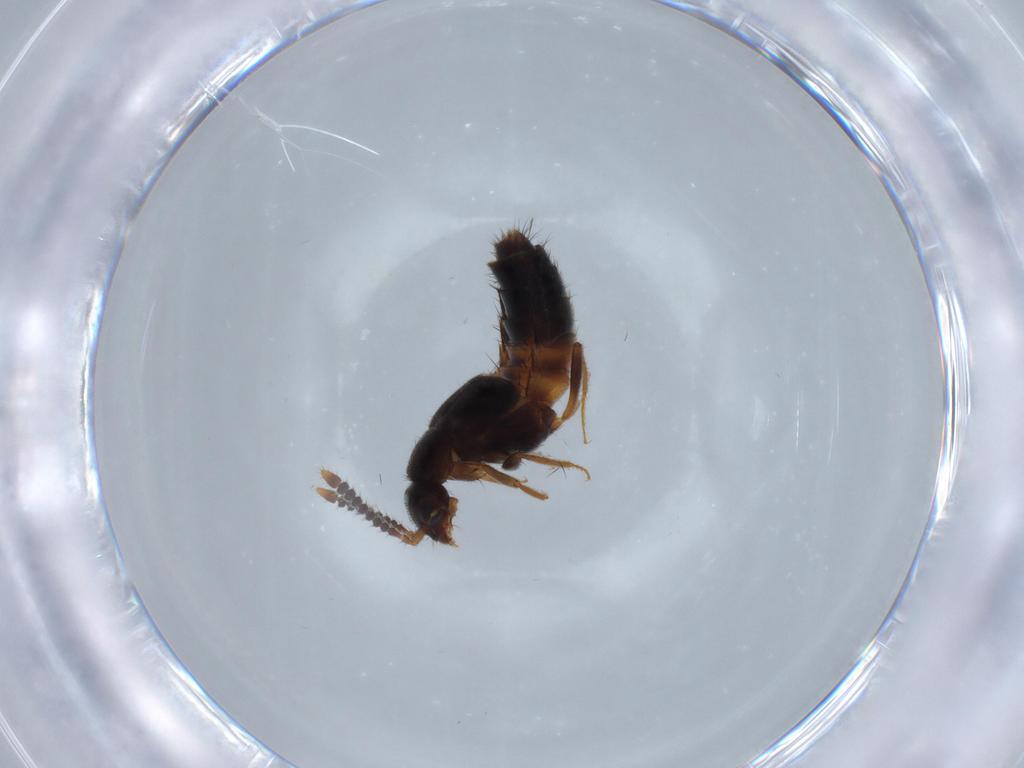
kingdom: Animalia
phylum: Arthropoda
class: Insecta
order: Coleoptera
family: Staphylinidae
